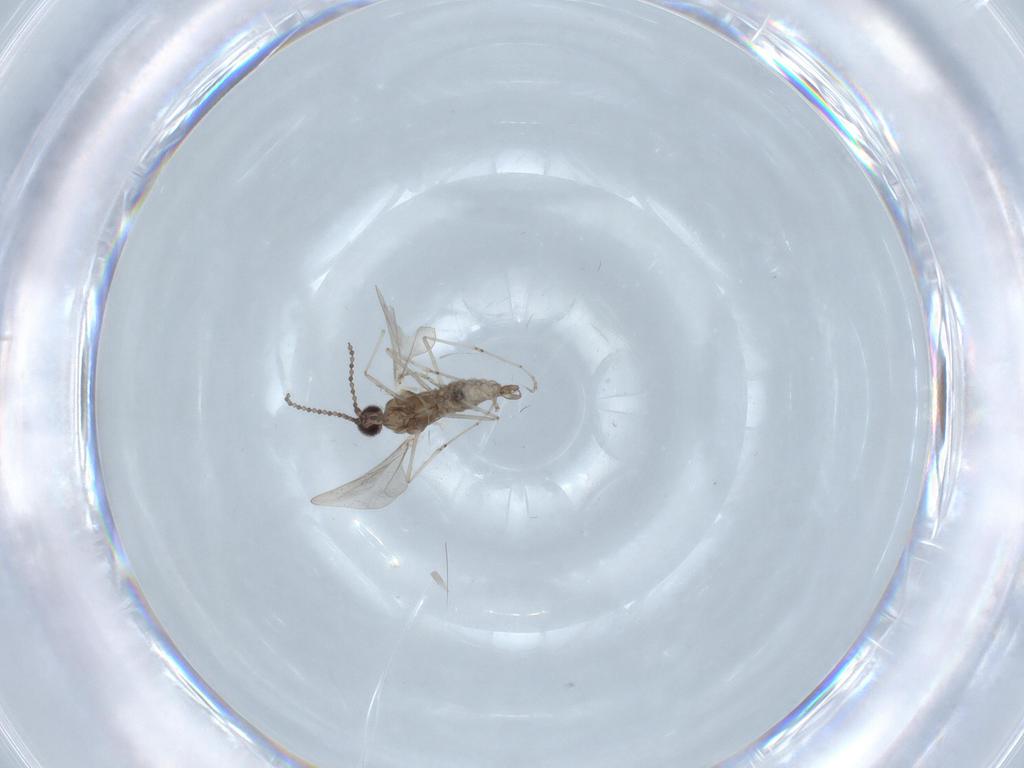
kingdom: Animalia
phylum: Arthropoda
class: Insecta
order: Diptera
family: Cecidomyiidae
